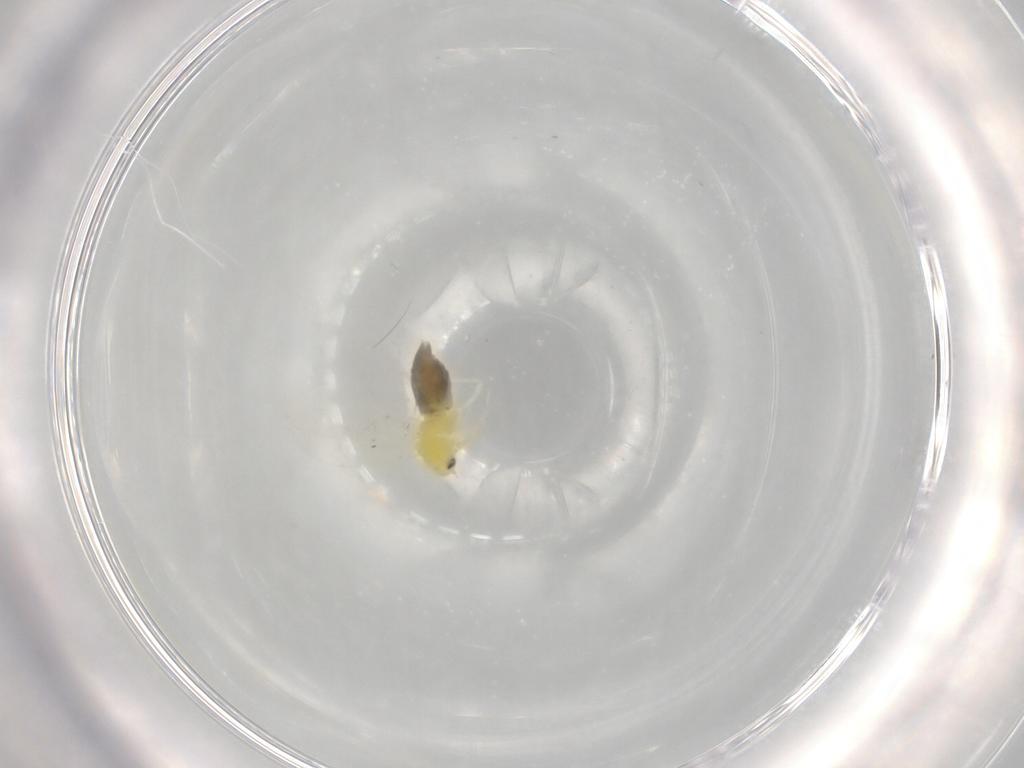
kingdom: Animalia
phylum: Arthropoda
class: Insecta
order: Hemiptera
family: Aleyrodidae
